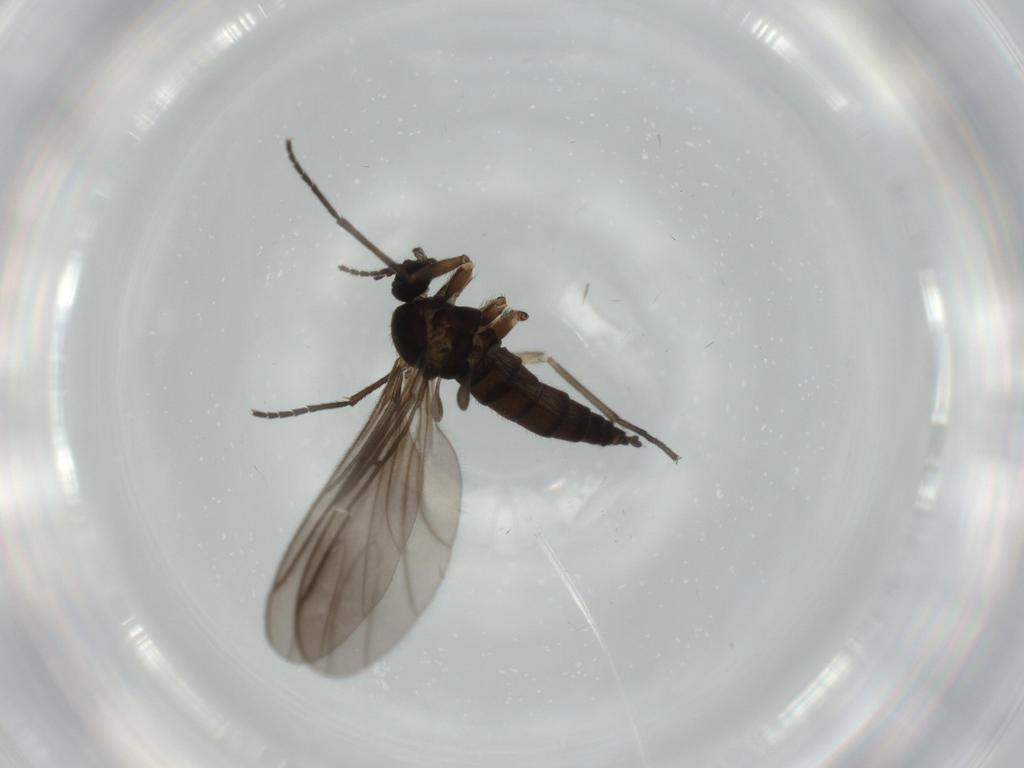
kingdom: Animalia
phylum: Arthropoda
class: Insecta
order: Diptera
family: Sciaridae
